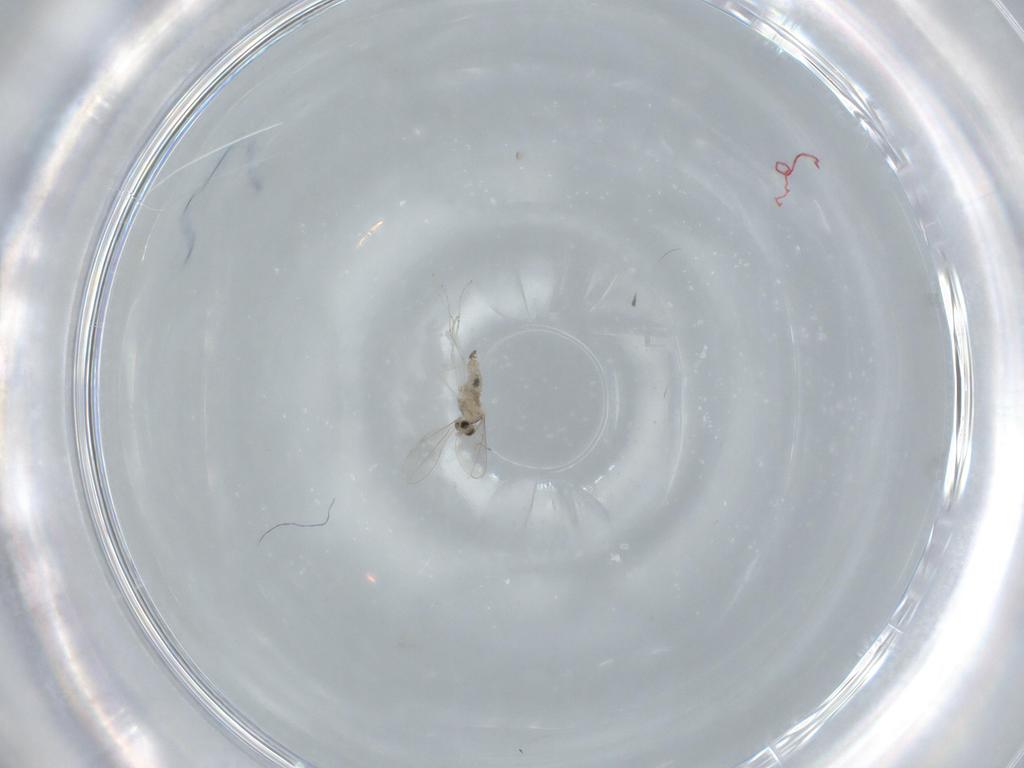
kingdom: Animalia
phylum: Arthropoda
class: Insecta
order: Diptera
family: Cecidomyiidae
